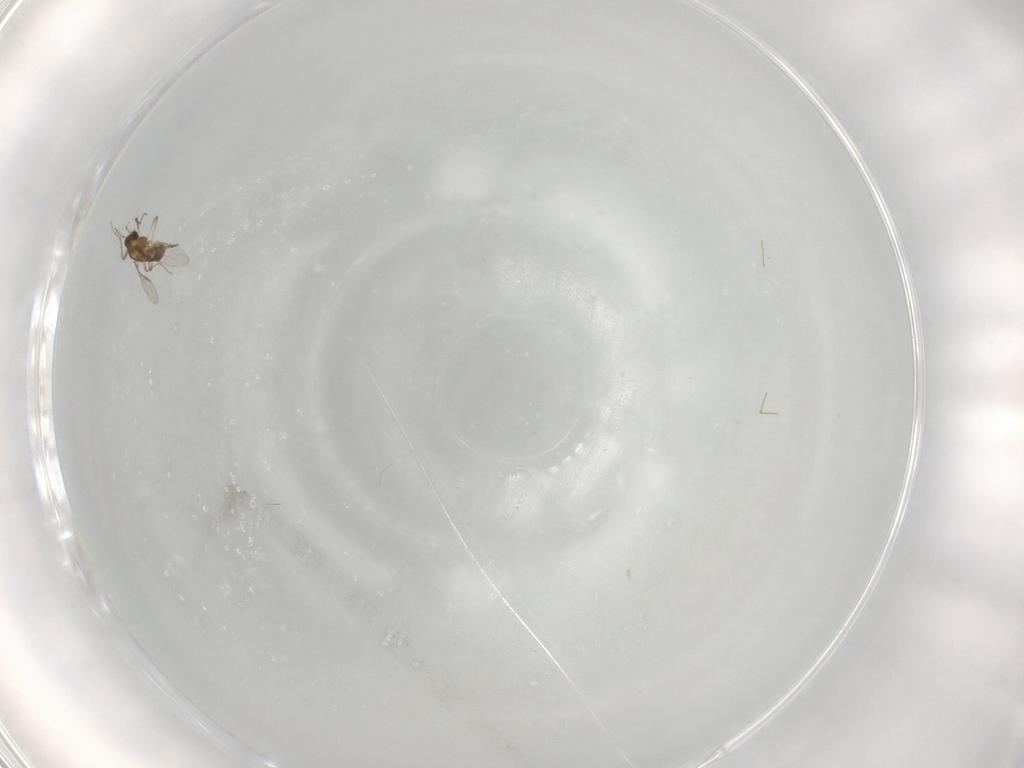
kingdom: Animalia
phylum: Arthropoda
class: Insecta
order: Diptera
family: Chironomidae
